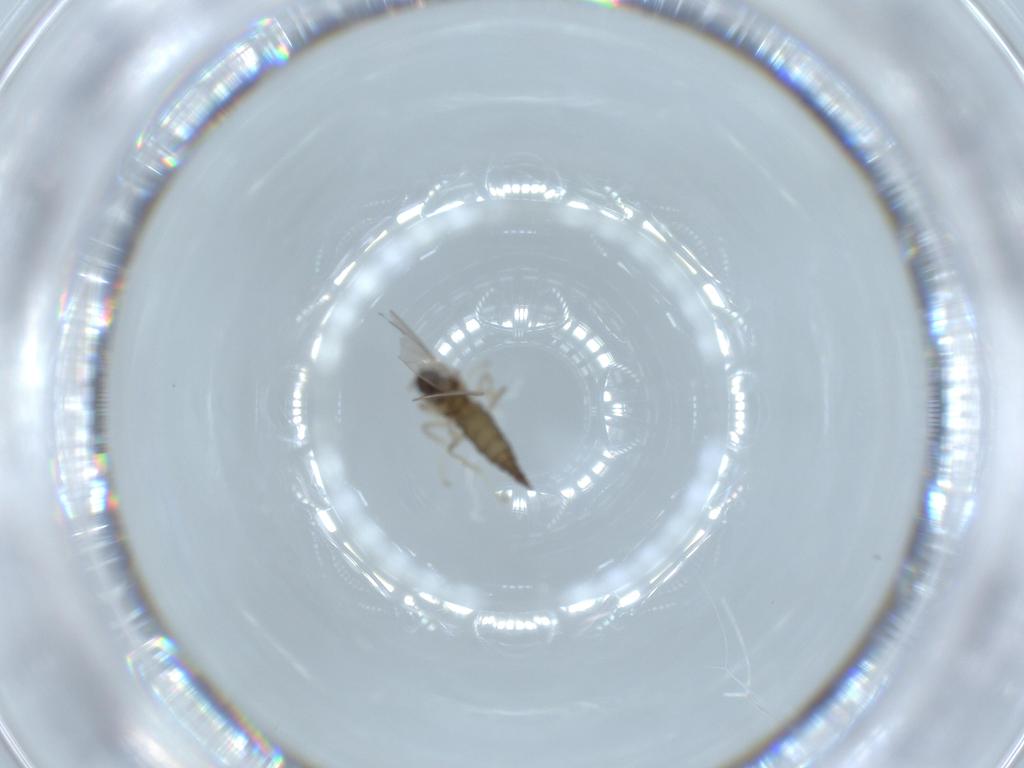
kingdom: Animalia
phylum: Arthropoda
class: Insecta
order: Diptera
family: Cecidomyiidae
